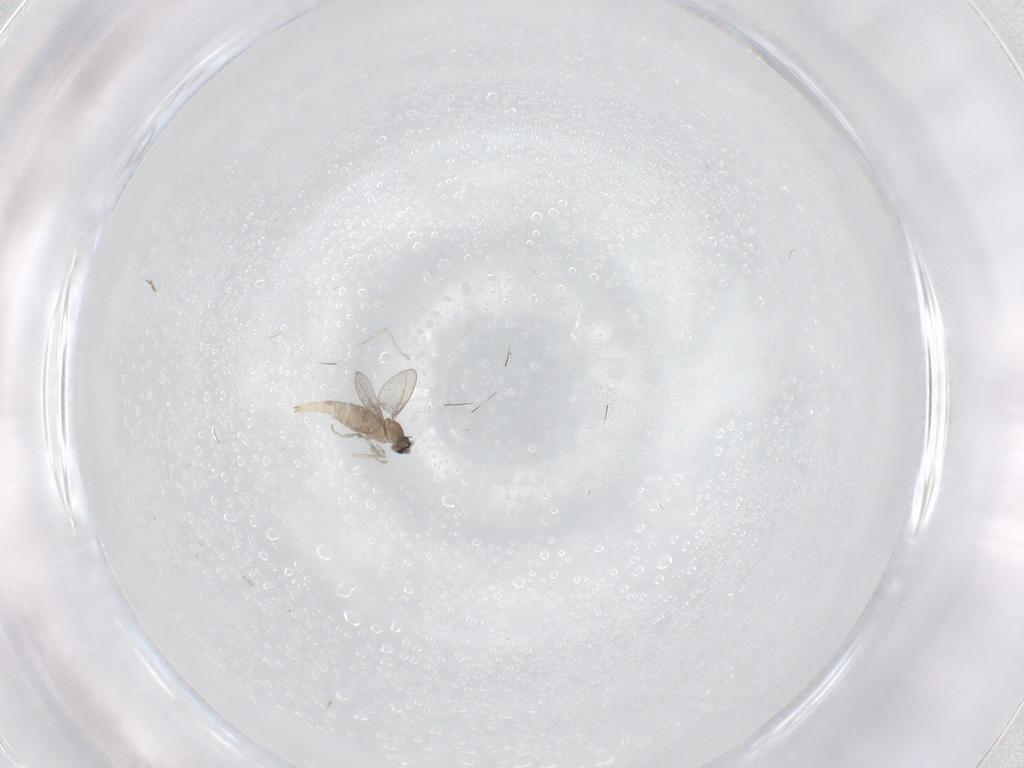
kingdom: Animalia
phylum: Arthropoda
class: Insecta
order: Diptera
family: Cecidomyiidae
